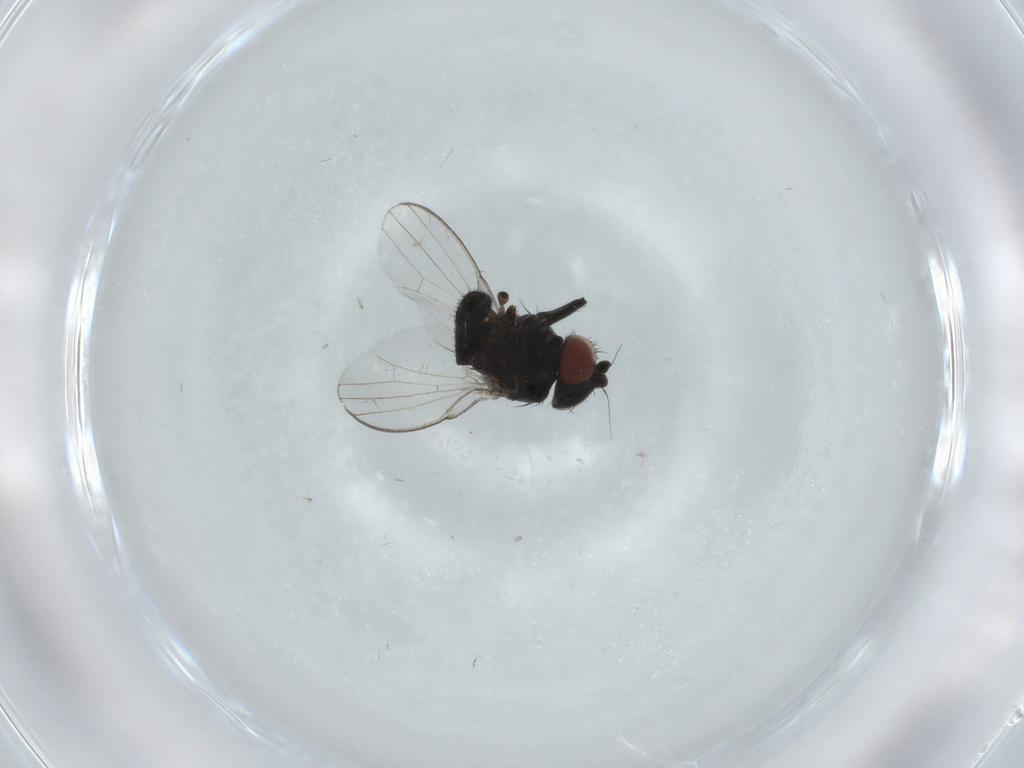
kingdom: Animalia
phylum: Arthropoda
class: Insecta
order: Diptera
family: Milichiidae
